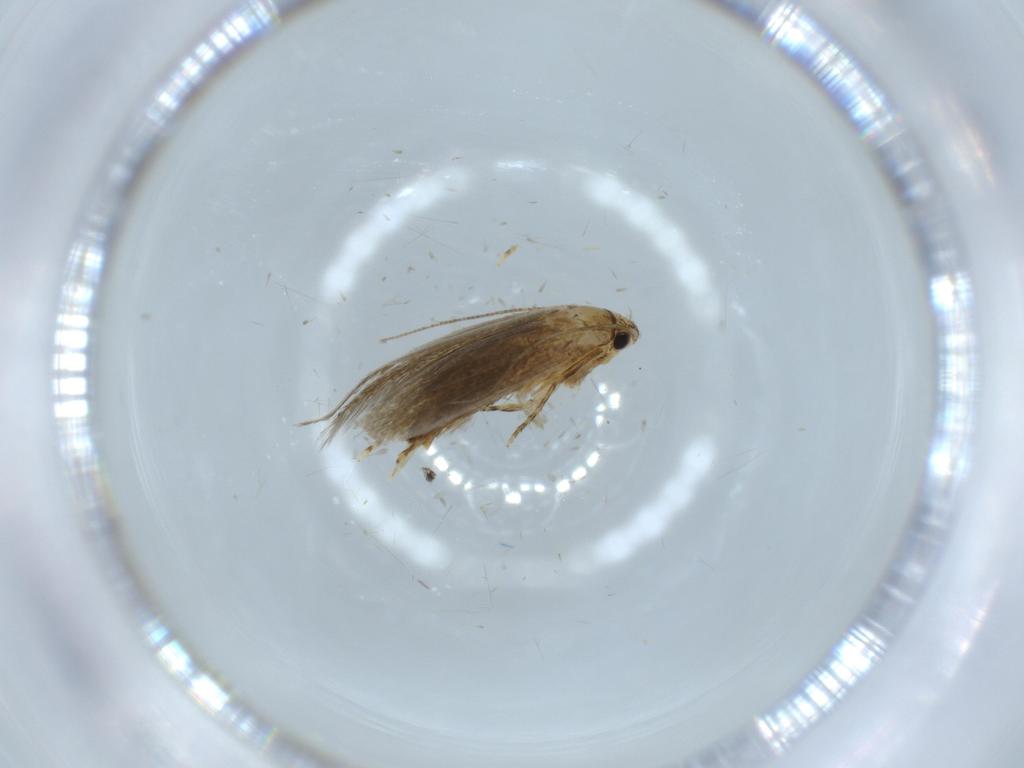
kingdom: Animalia
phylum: Arthropoda
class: Insecta
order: Lepidoptera
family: Tineidae
